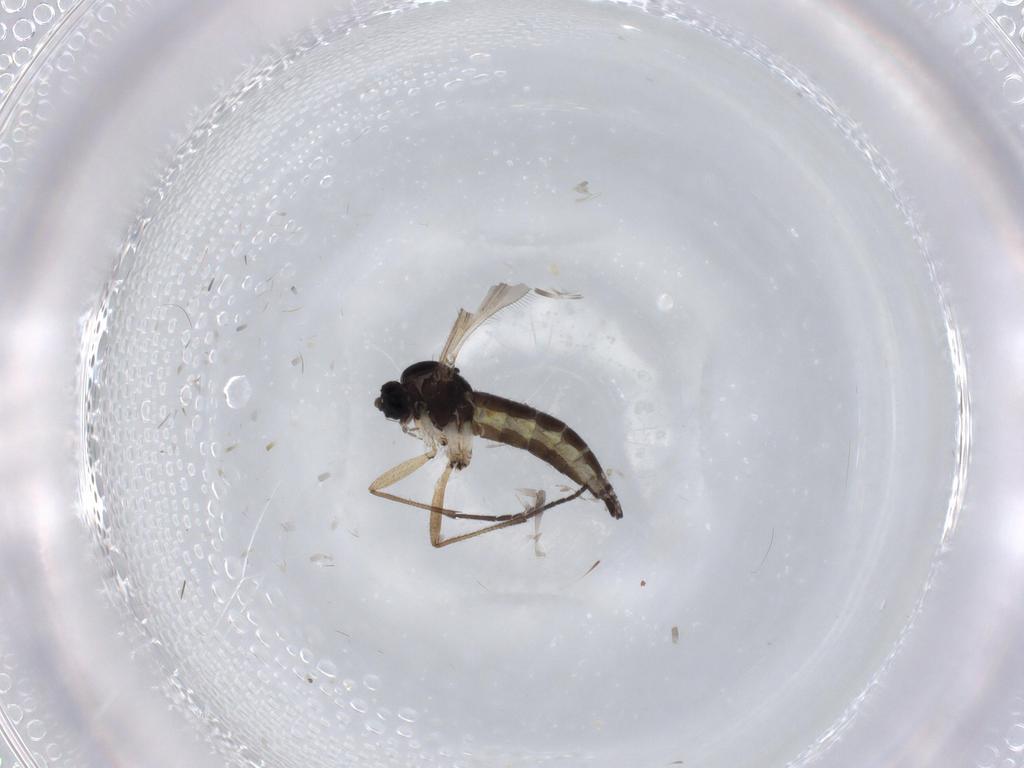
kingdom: Animalia
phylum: Arthropoda
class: Insecta
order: Diptera
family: Sciaridae
